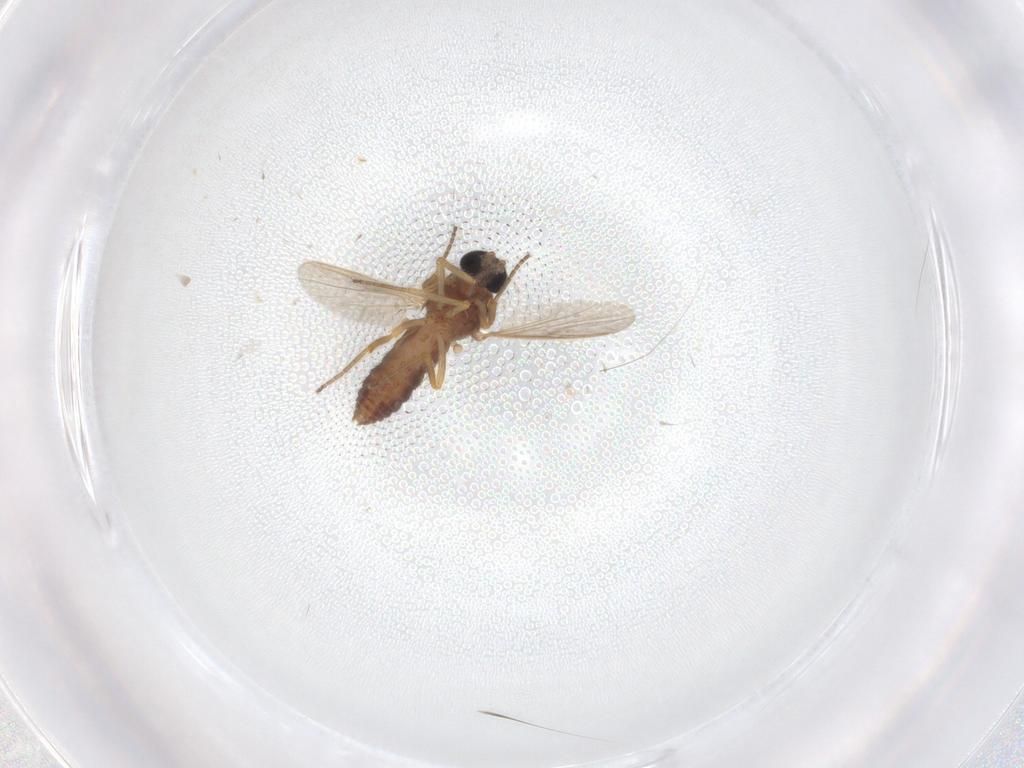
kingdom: Animalia
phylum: Arthropoda
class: Insecta
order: Diptera
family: Ceratopogonidae
